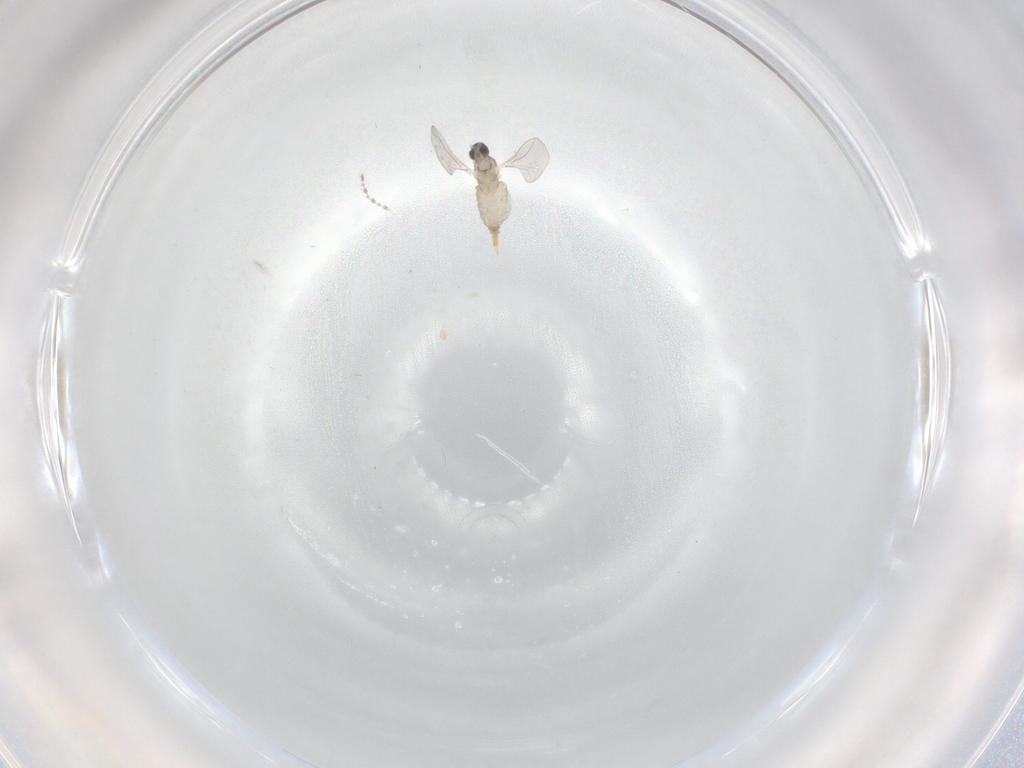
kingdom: Animalia
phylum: Arthropoda
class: Insecta
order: Diptera
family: Cecidomyiidae
